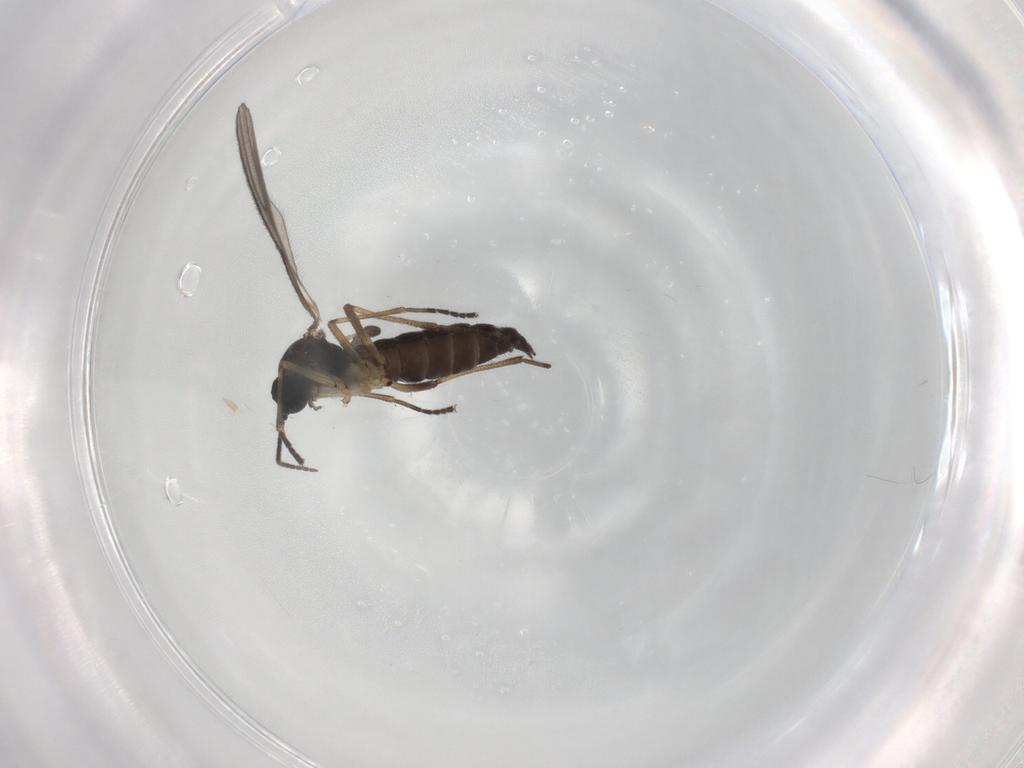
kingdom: Animalia
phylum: Arthropoda
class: Insecta
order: Diptera
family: Sciaridae
